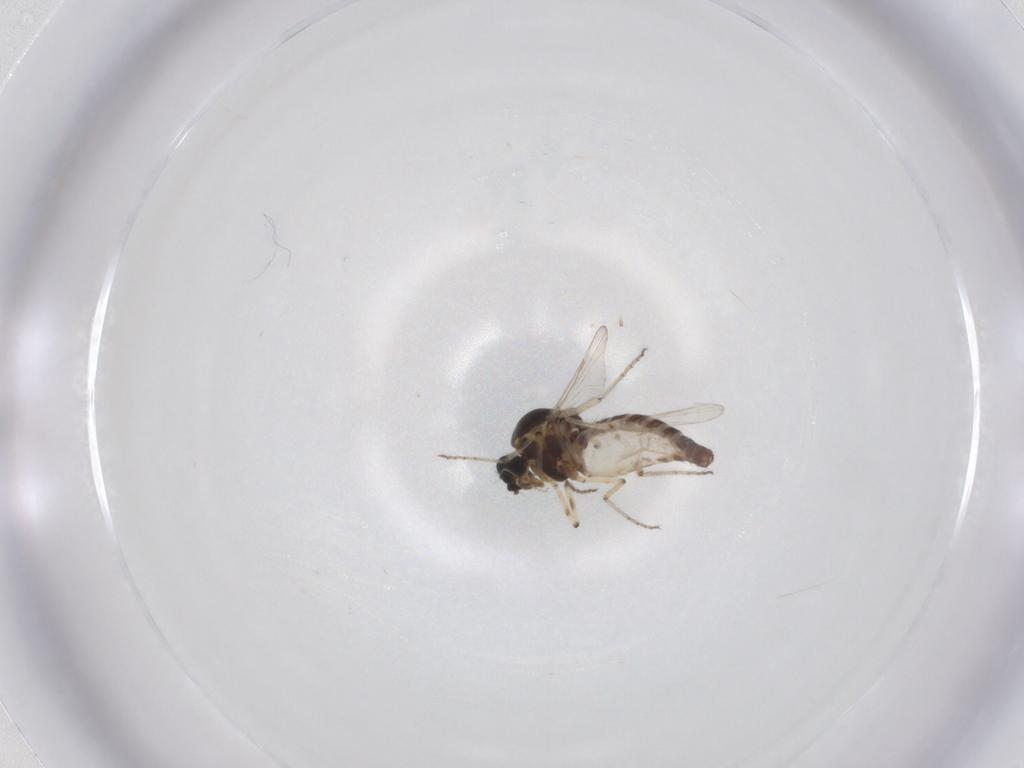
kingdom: Animalia
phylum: Arthropoda
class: Insecta
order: Diptera
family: Ceratopogonidae
